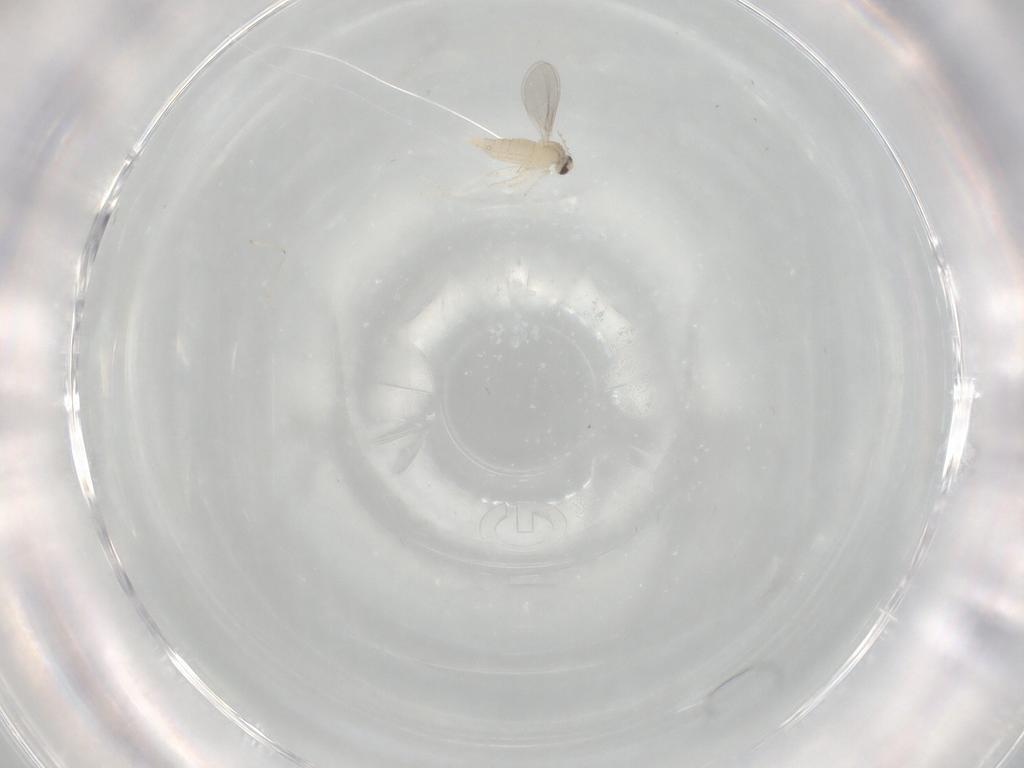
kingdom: Animalia
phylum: Arthropoda
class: Insecta
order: Diptera
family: Cecidomyiidae
